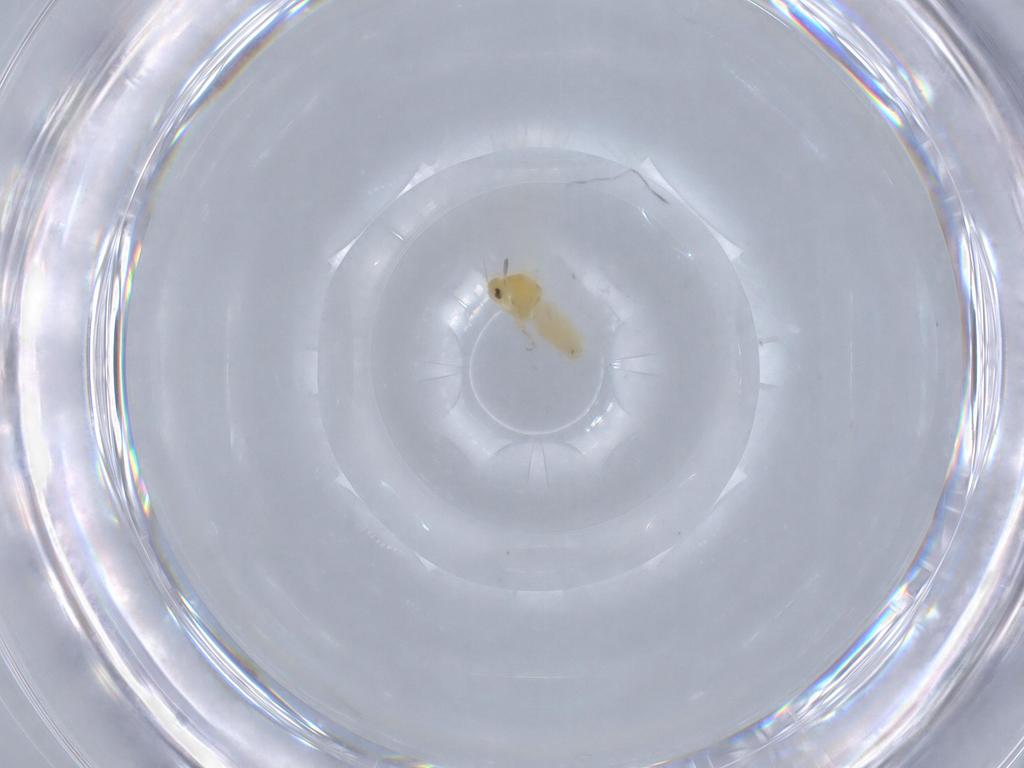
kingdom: Animalia
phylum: Arthropoda
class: Insecta
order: Hemiptera
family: Aleyrodidae
